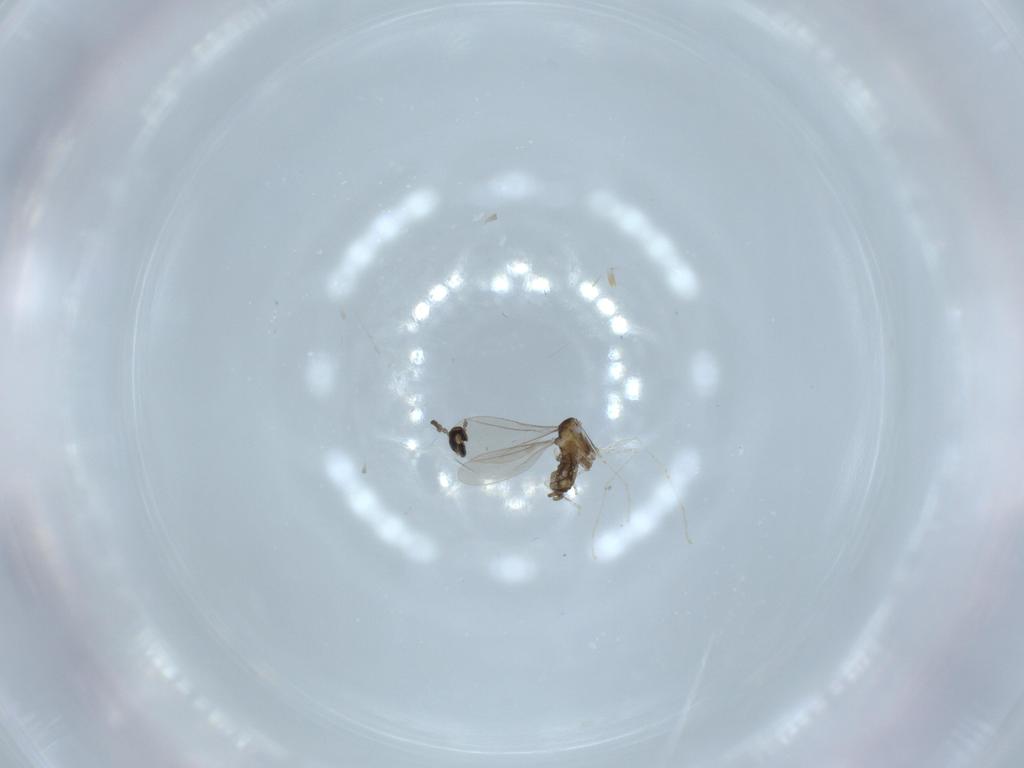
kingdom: Animalia
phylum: Arthropoda
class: Insecta
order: Diptera
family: Cecidomyiidae
